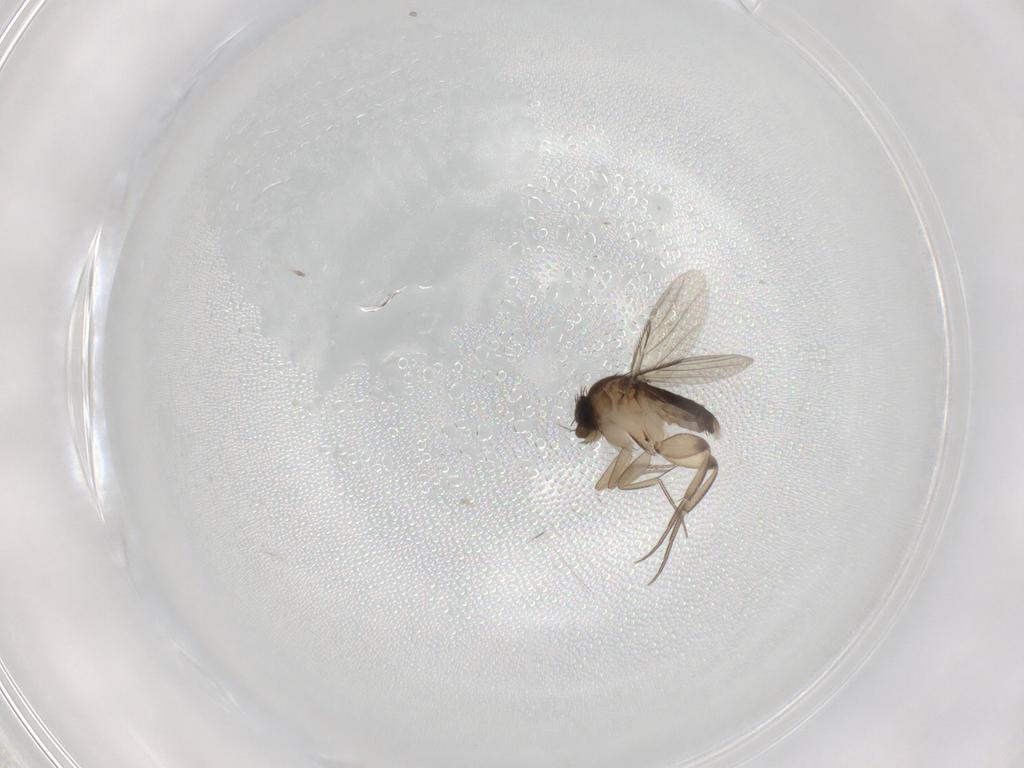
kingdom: Animalia
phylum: Arthropoda
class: Insecta
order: Diptera
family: Phoridae
